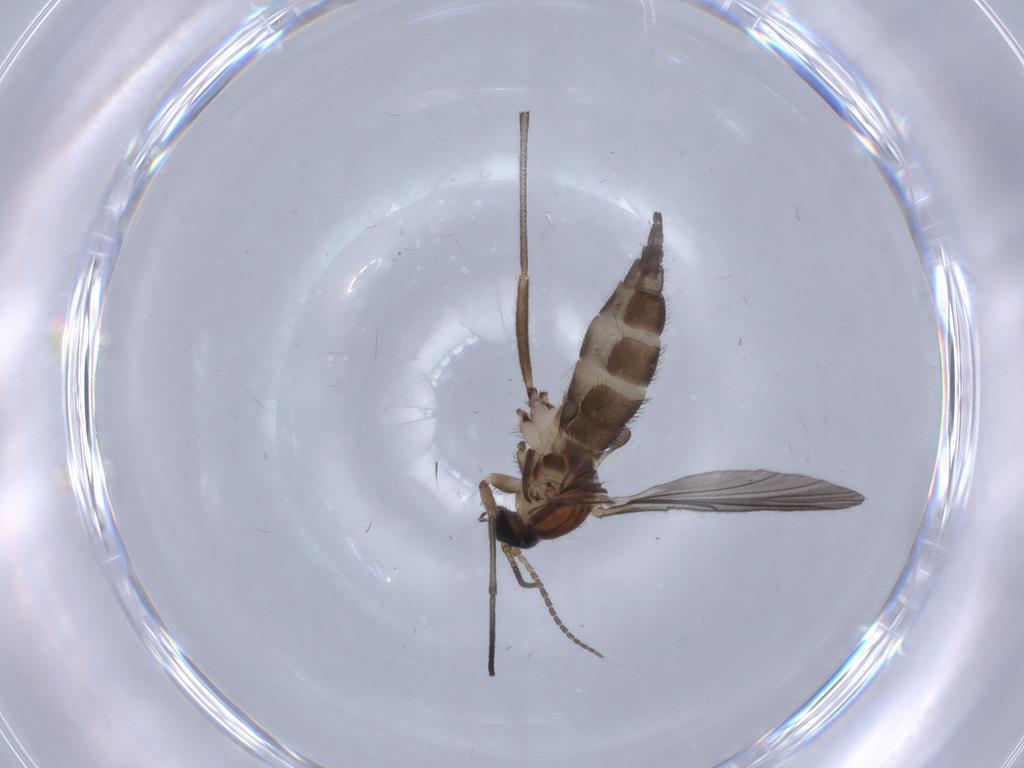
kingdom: Animalia
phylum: Arthropoda
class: Insecta
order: Diptera
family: Sciaridae
